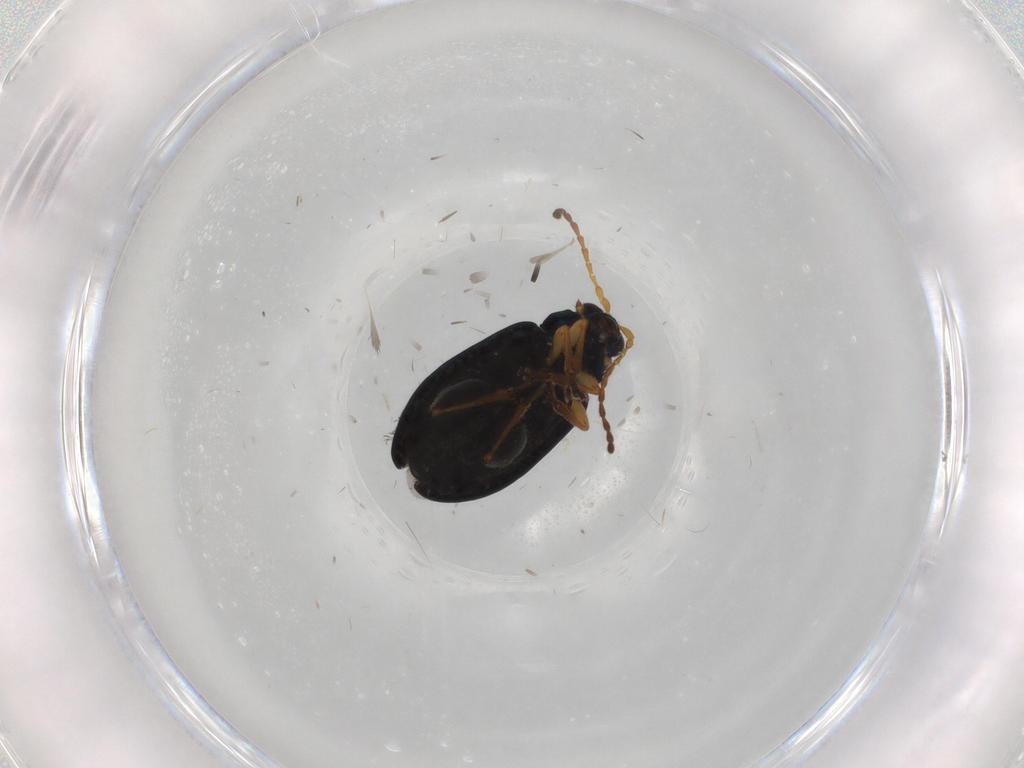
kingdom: Animalia
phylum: Arthropoda
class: Insecta
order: Coleoptera
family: Chrysomelidae
